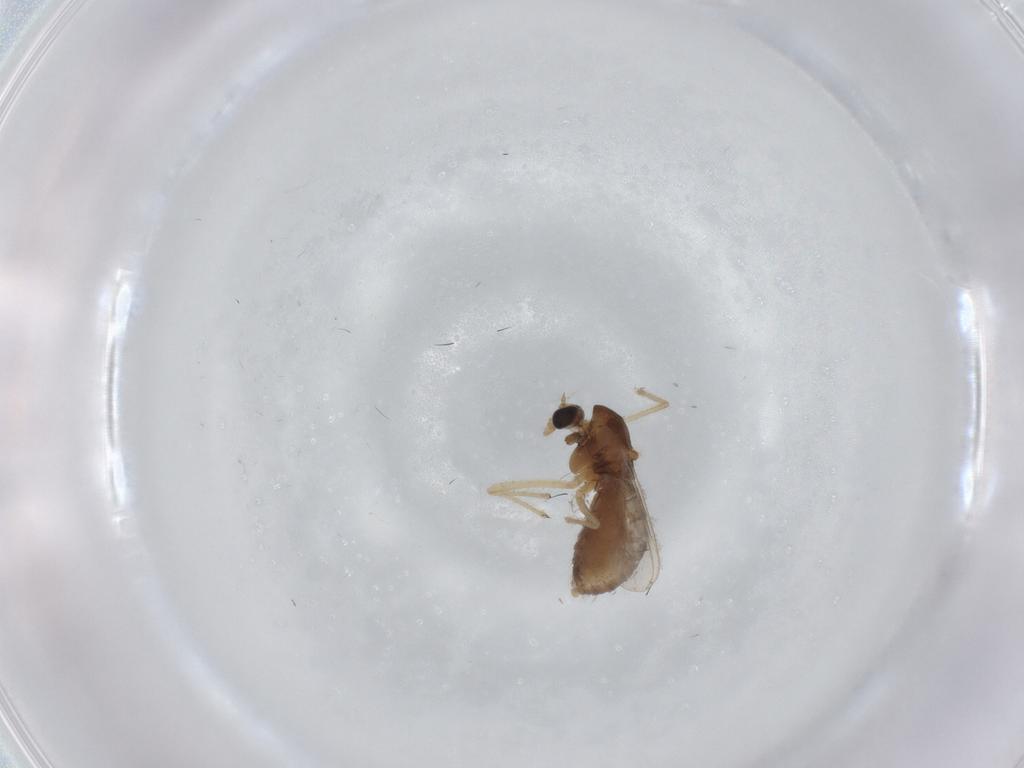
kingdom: Animalia
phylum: Arthropoda
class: Insecta
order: Diptera
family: Chironomidae
